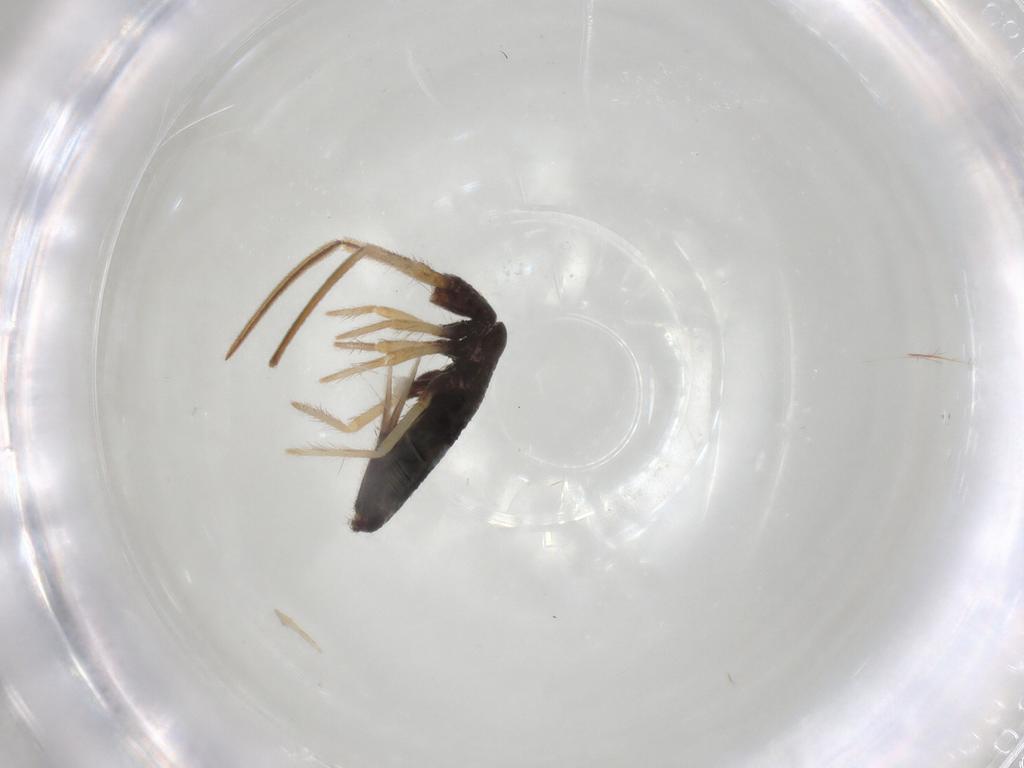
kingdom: Animalia
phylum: Arthropoda
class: Collembola
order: Entomobryomorpha
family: Entomobryidae
